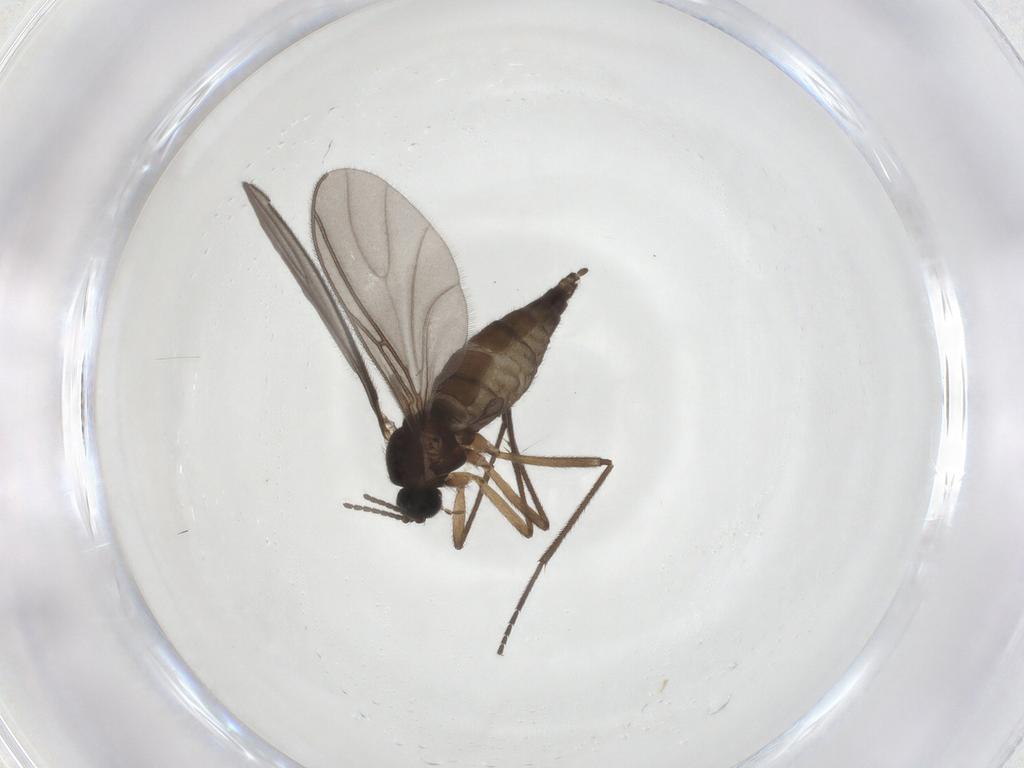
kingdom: Animalia
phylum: Arthropoda
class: Insecta
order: Diptera
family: Sciaridae
